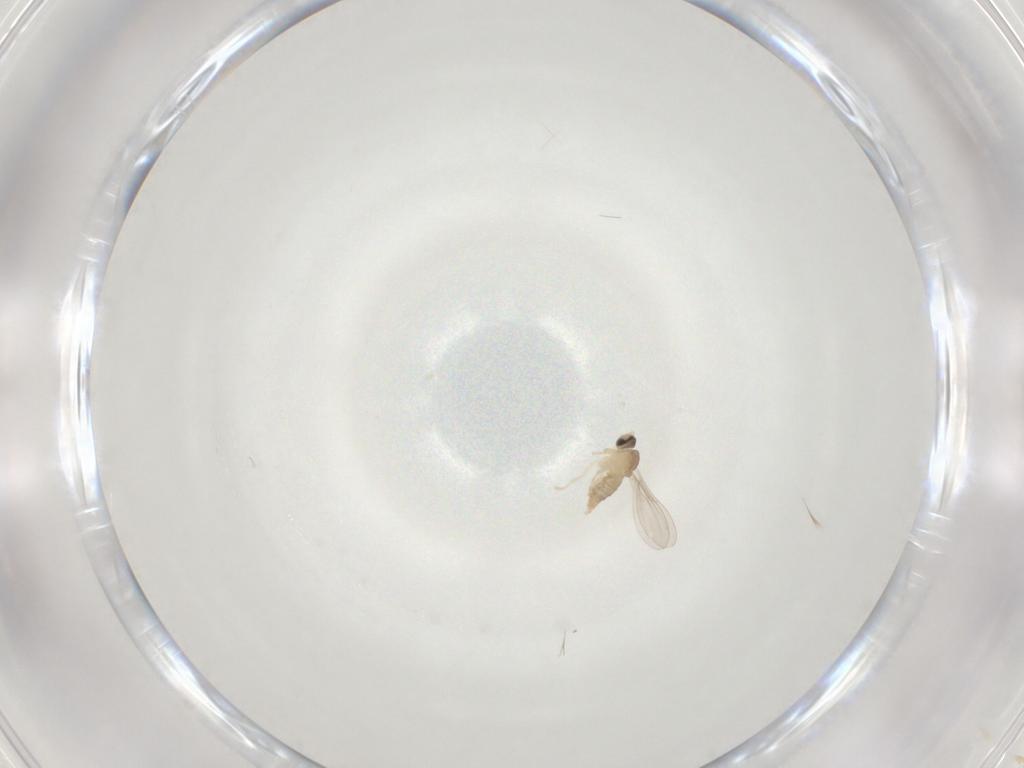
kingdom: Animalia
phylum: Arthropoda
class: Insecta
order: Diptera
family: Cecidomyiidae
